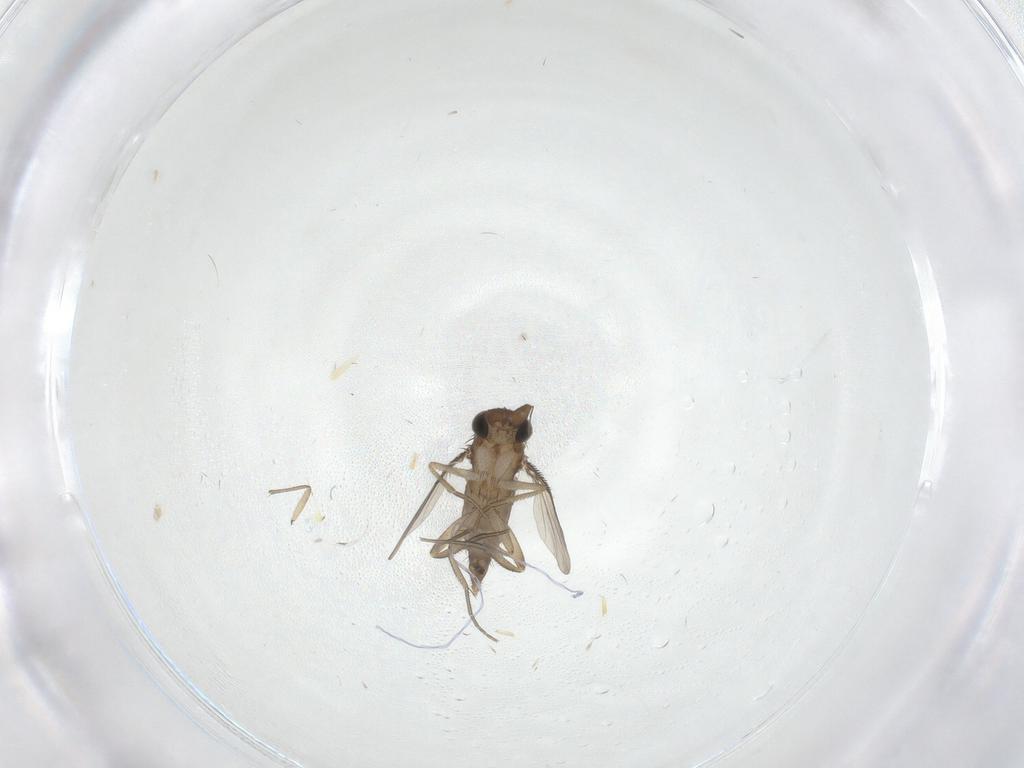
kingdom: Animalia
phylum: Arthropoda
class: Insecta
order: Diptera
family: Phoridae
